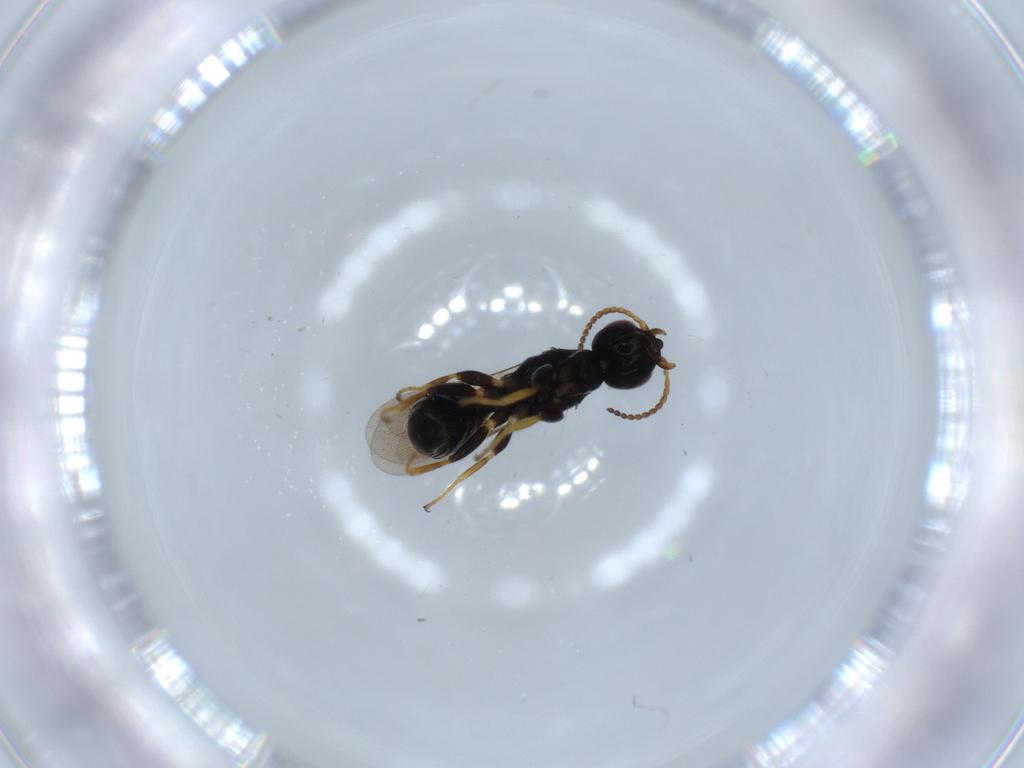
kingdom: Animalia
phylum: Arthropoda
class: Insecta
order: Hymenoptera
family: Bethylidae
